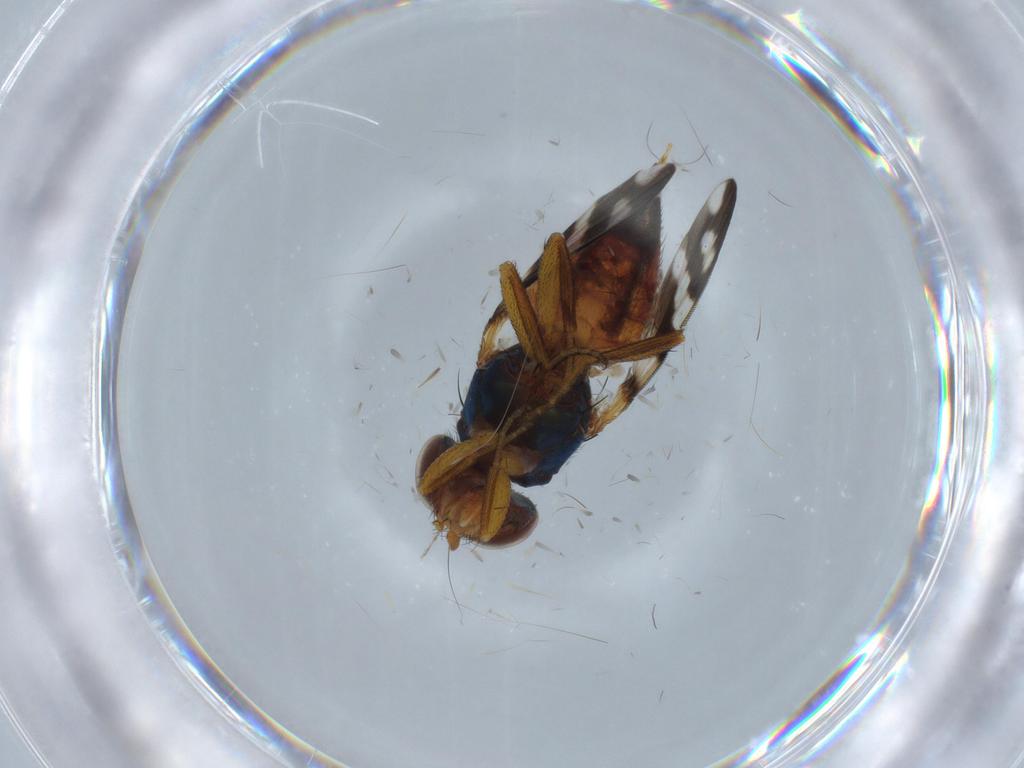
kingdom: Animalia
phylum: Arthropoda
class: Insecta
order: Diptera
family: Ulidiidae
